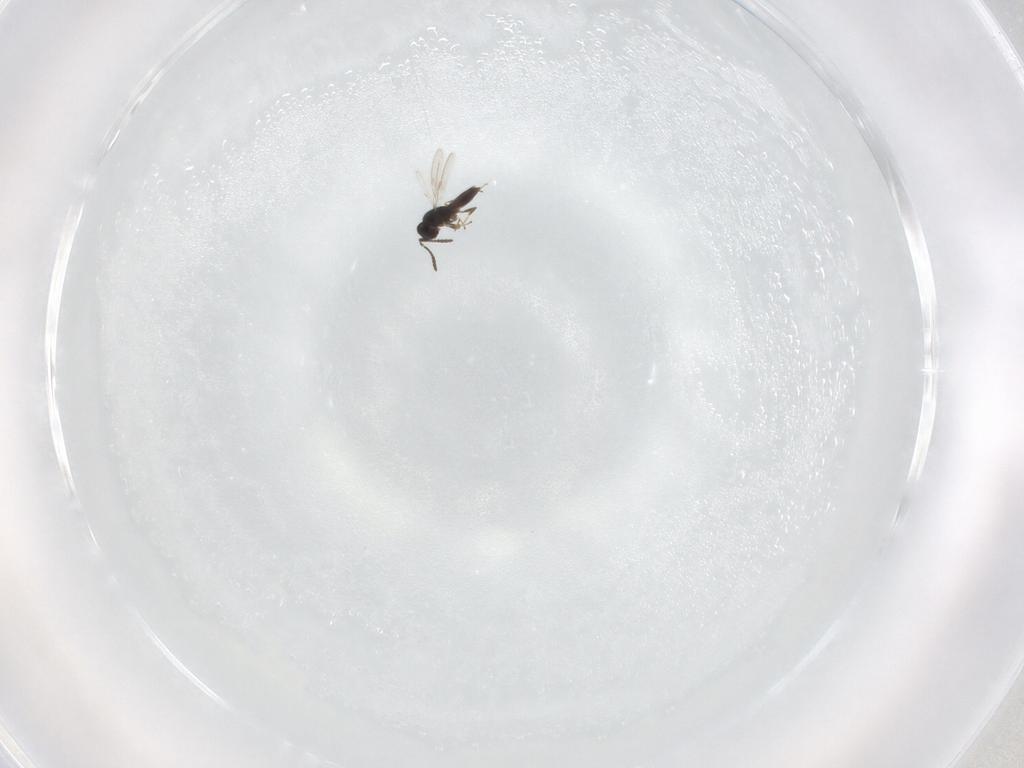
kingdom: Animalia
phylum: Arthropoda
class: Insecta
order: Hymenoptera
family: Scelionidae
